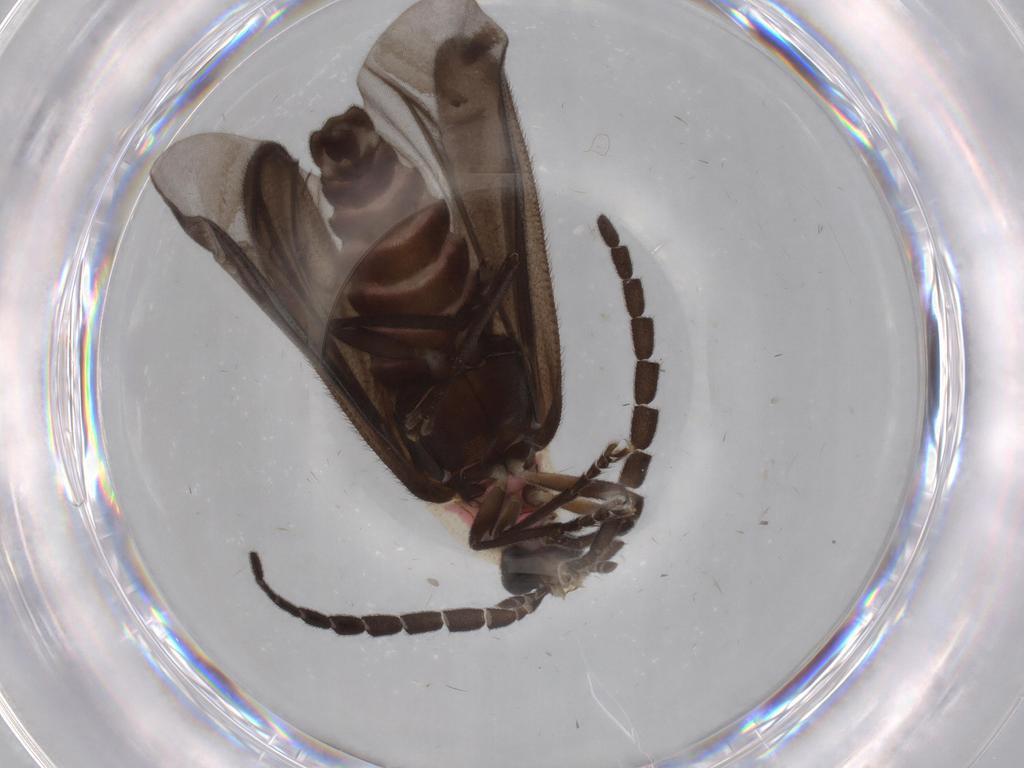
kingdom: Animalia
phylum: Arthropoda
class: Insecta
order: Coleoptera
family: Lampyridae
